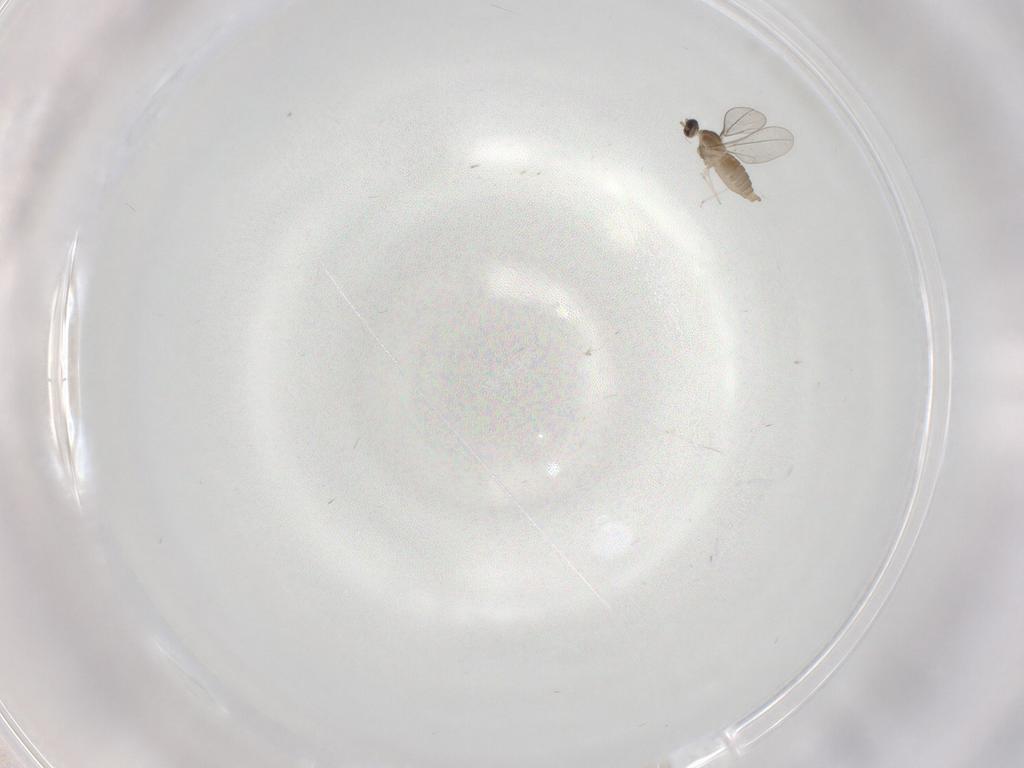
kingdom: Animalia
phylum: Arthropoda
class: Insecta
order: Diptera
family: Cecidomyiidae
